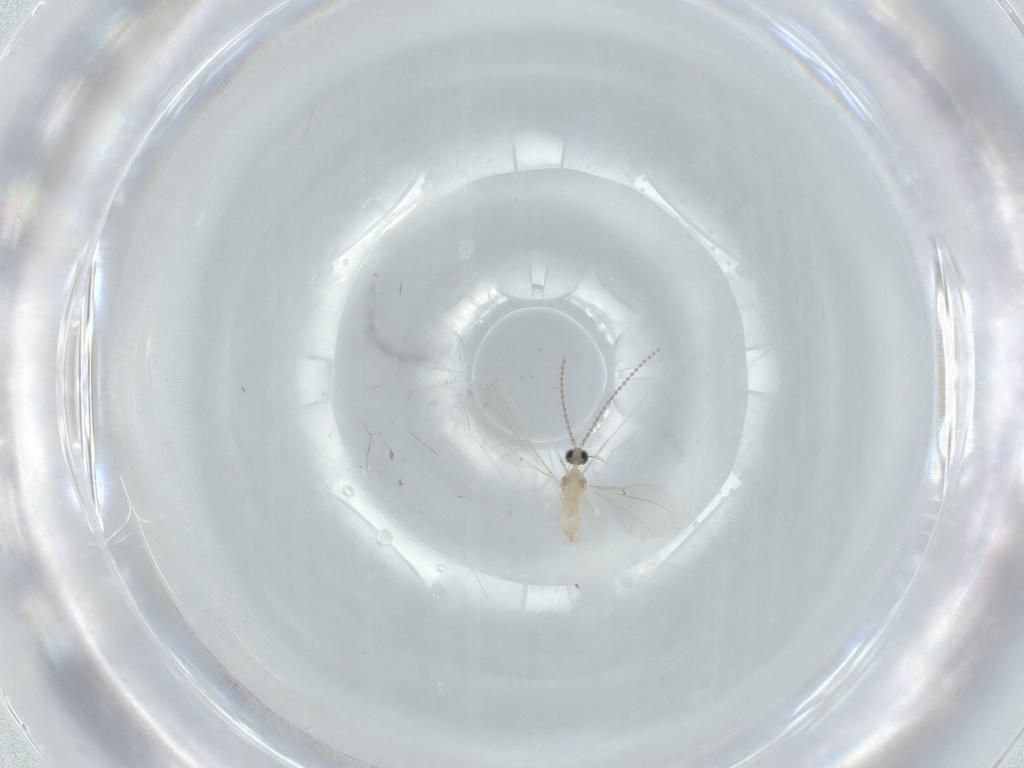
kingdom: Animalia
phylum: Arthropoda
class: Insecta
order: Diptera
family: Cecidomyiidae
